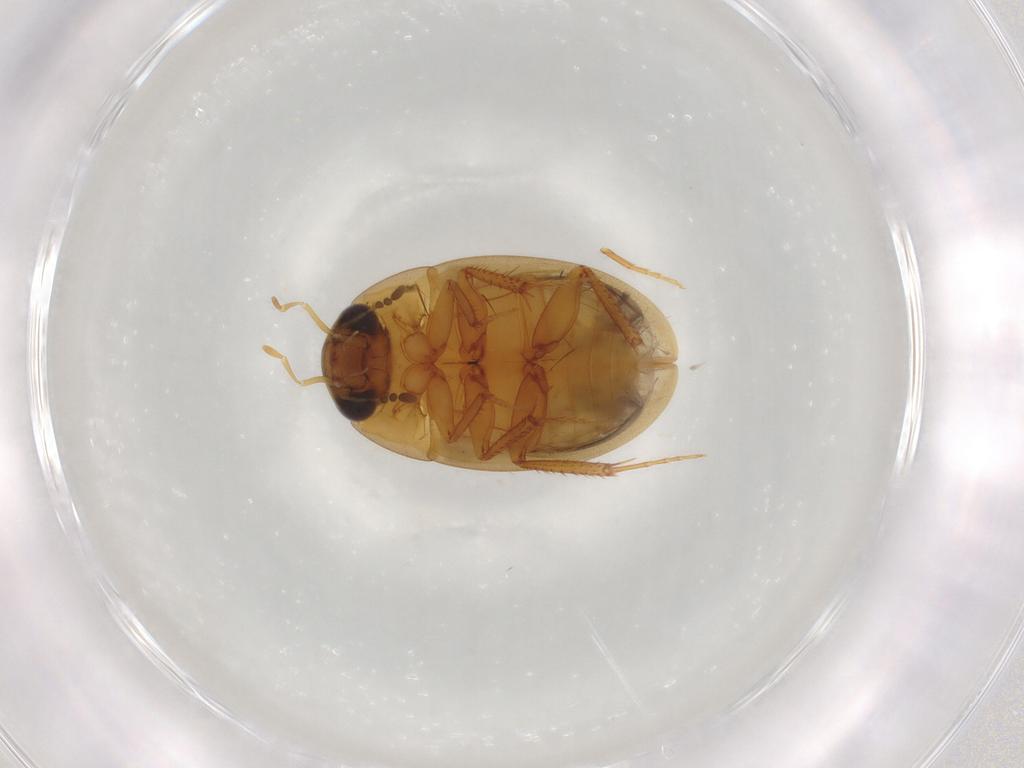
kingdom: Animalia
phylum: Arthropoda
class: Insecta
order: Coleoptera
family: Hydrophilidae
